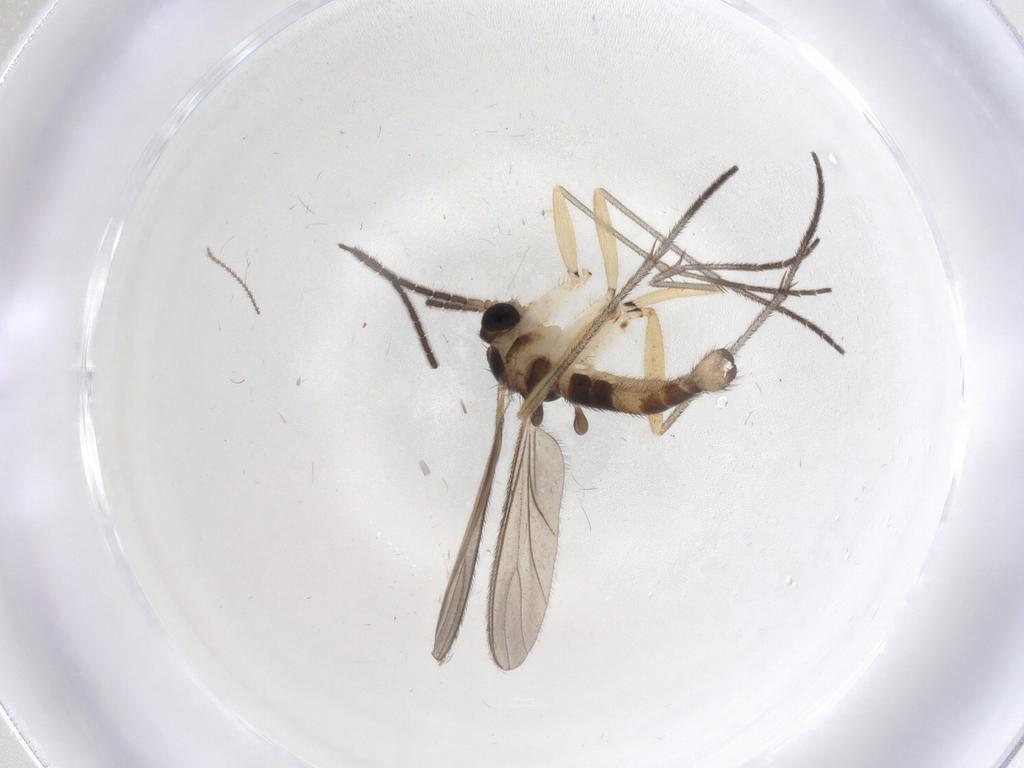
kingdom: Animalia
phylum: Arthropoda
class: Insecta
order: Diptera
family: Sciaridae
